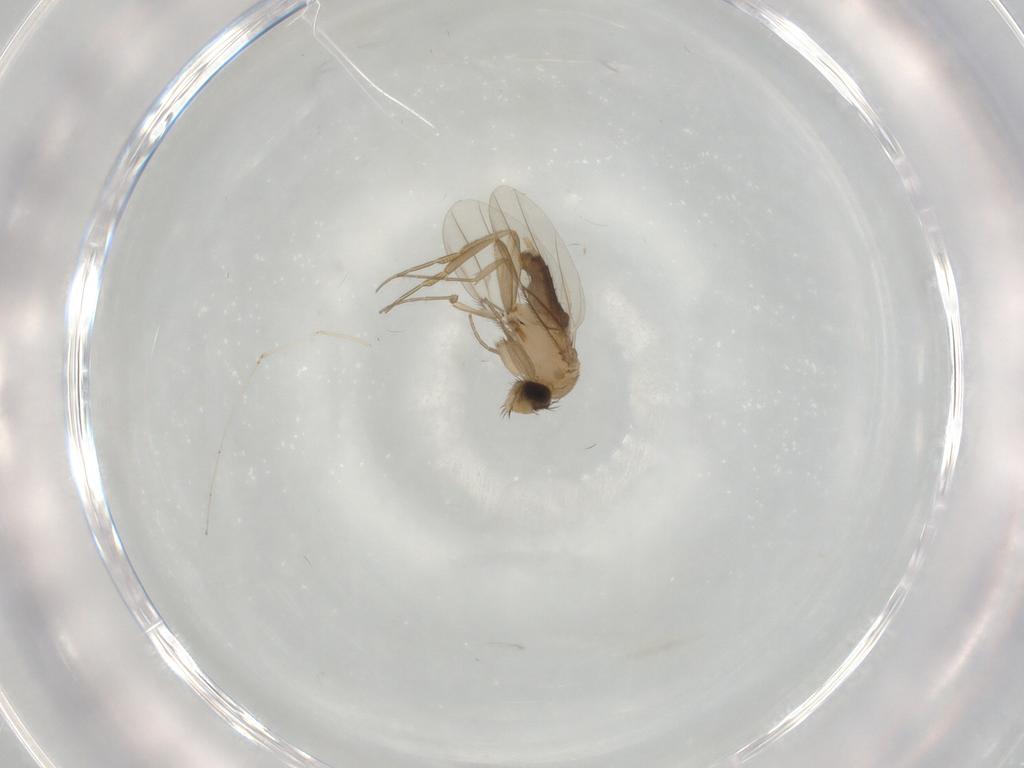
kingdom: Animalia
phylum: Arthropoda
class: Insecta
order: Diptera
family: Phoridae
